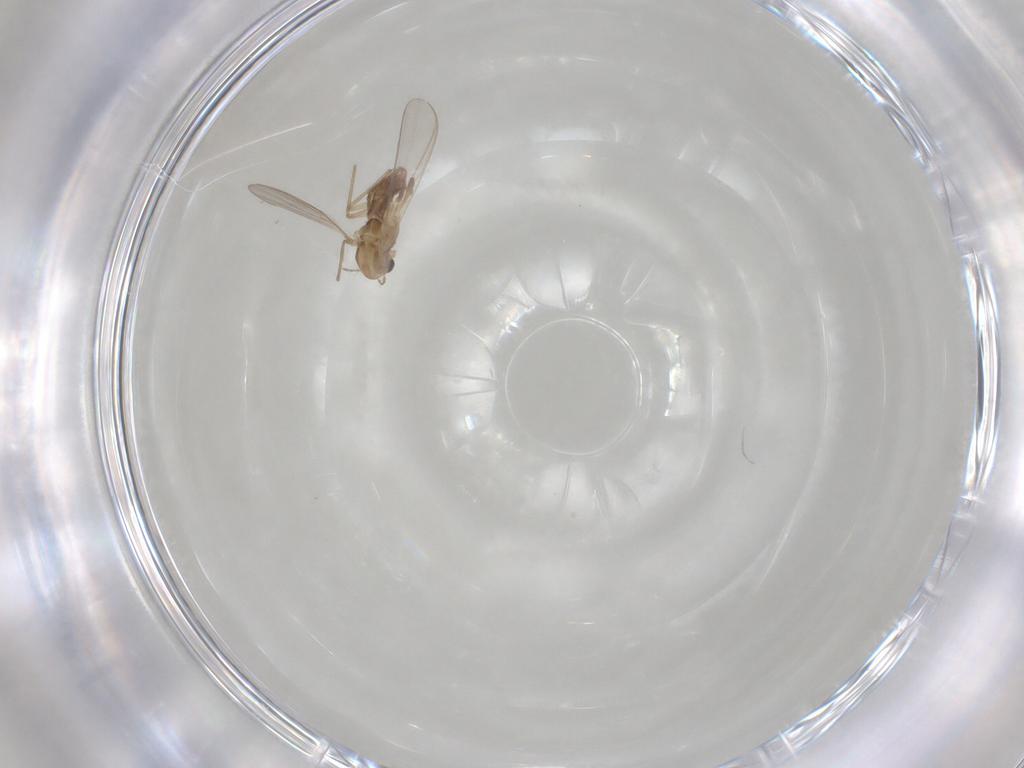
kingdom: Animalia
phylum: Arthropoda
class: Insecta
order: Diptera
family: Chironomidae
